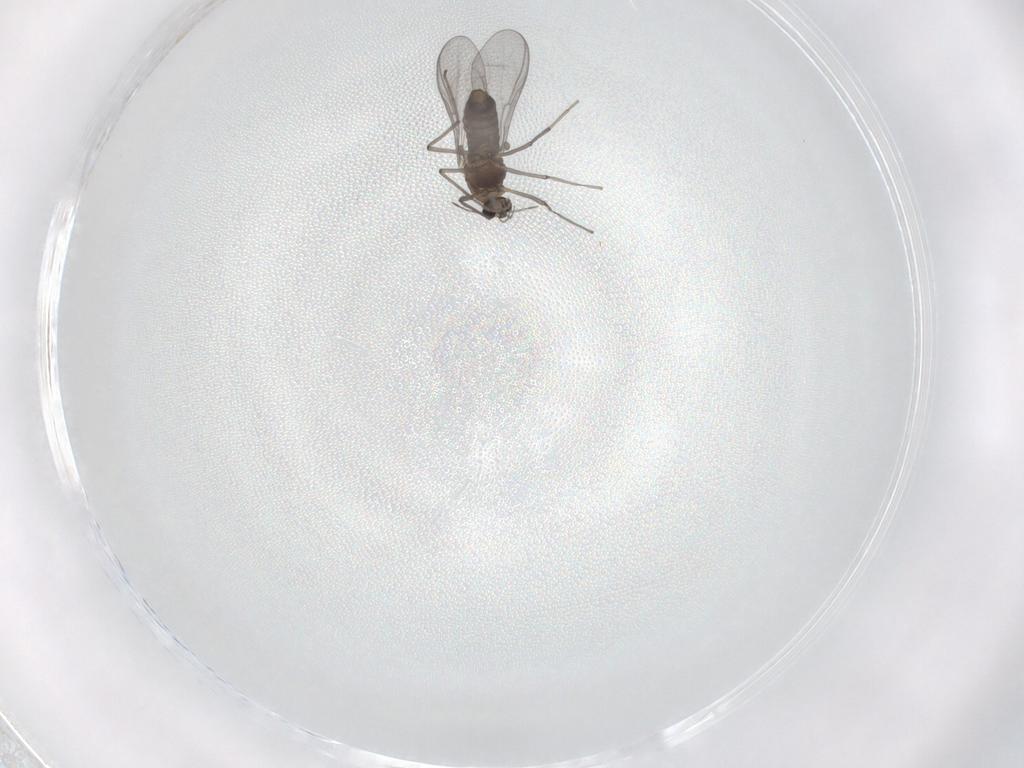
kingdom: Animalia
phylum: Arthropoda
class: Insecta
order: Diptera
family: Chironomidae
